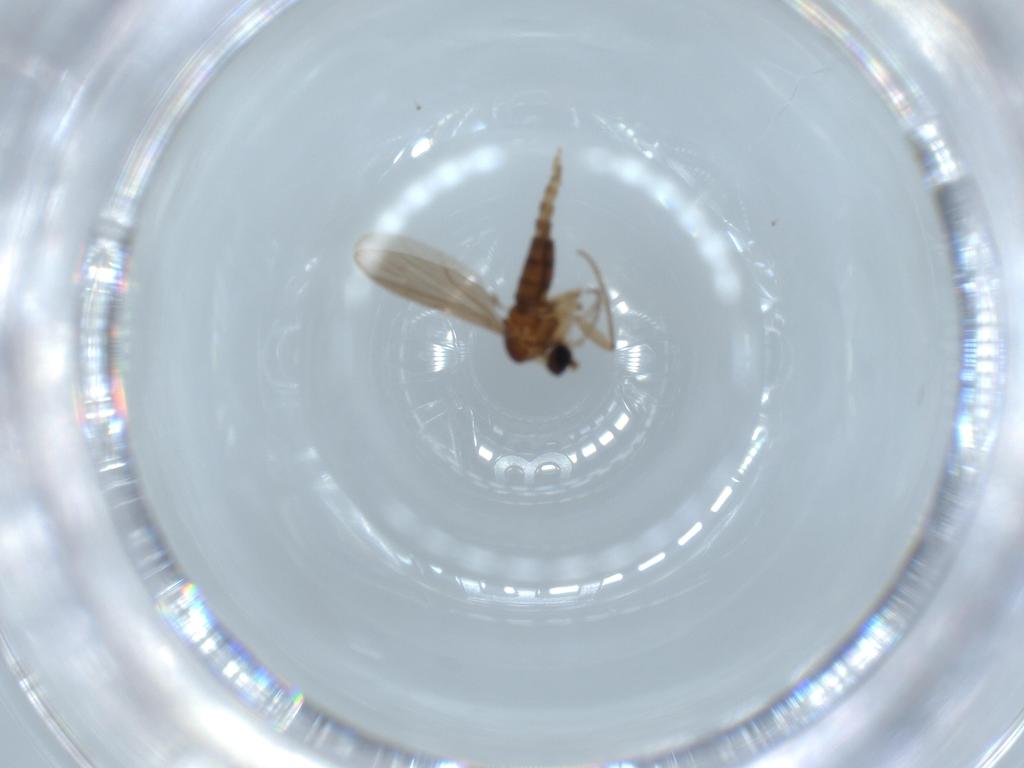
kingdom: Animalia
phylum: Arthropoda
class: Insecta
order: Diptera
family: Sciaridae
